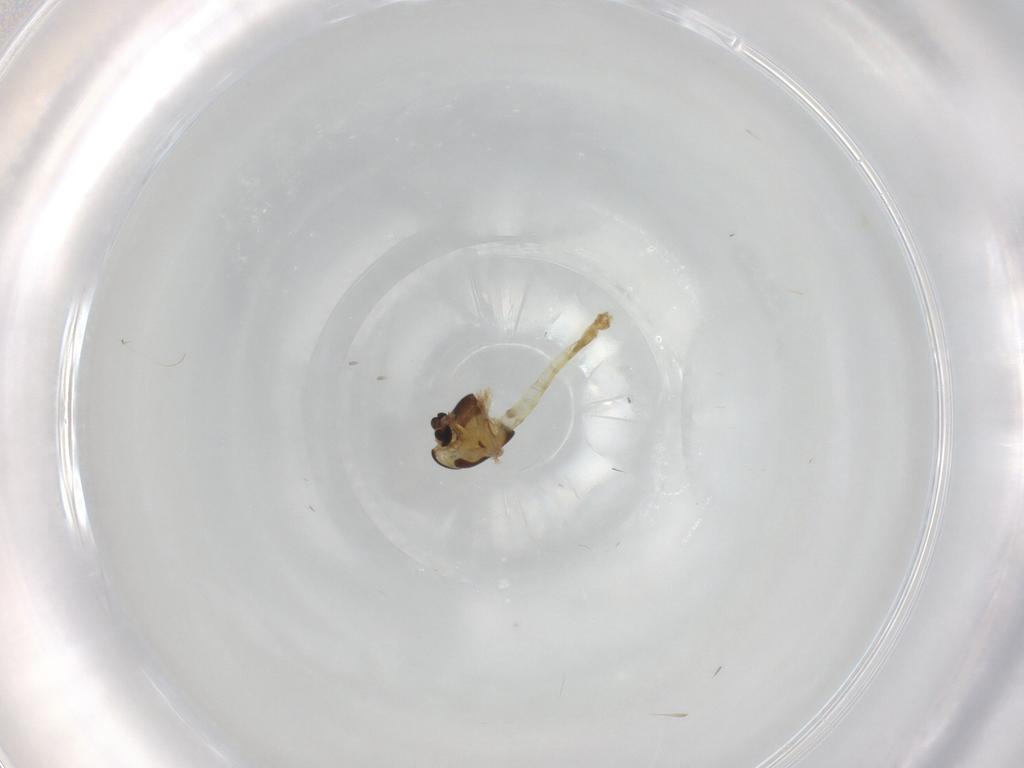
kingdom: Animalia
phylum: Arthropoda
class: Insecta
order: Diptera
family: Chironomidae
